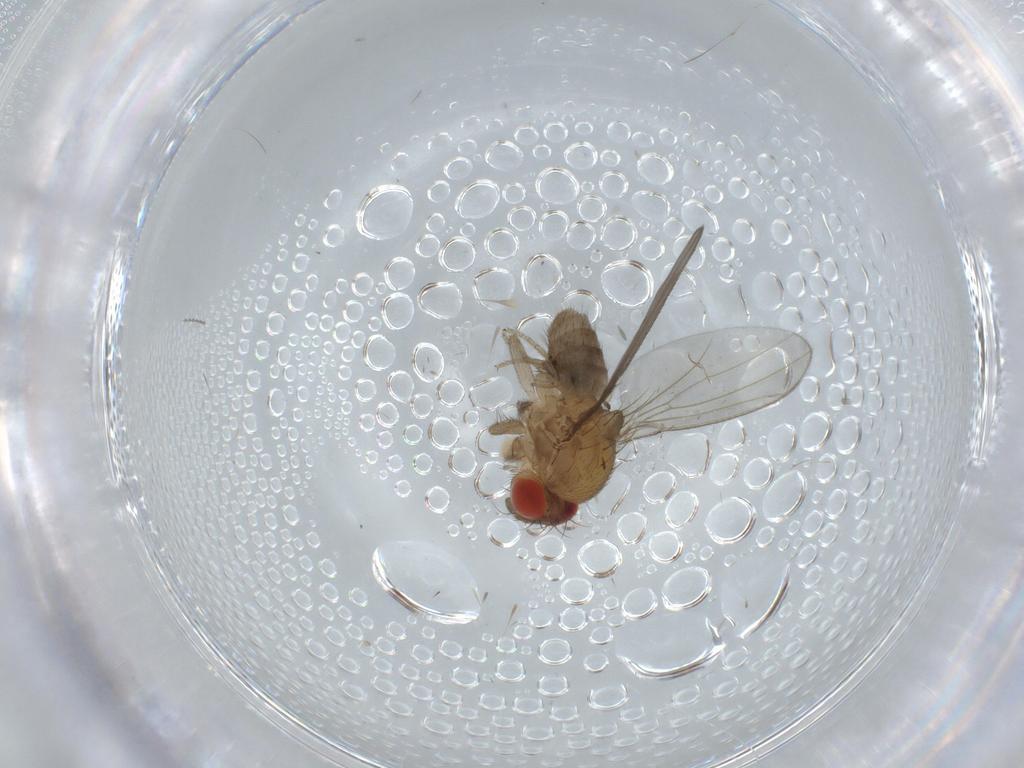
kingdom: Animalia
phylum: Arthropoda
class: Insecta
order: Diptera
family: Drosophilidae
